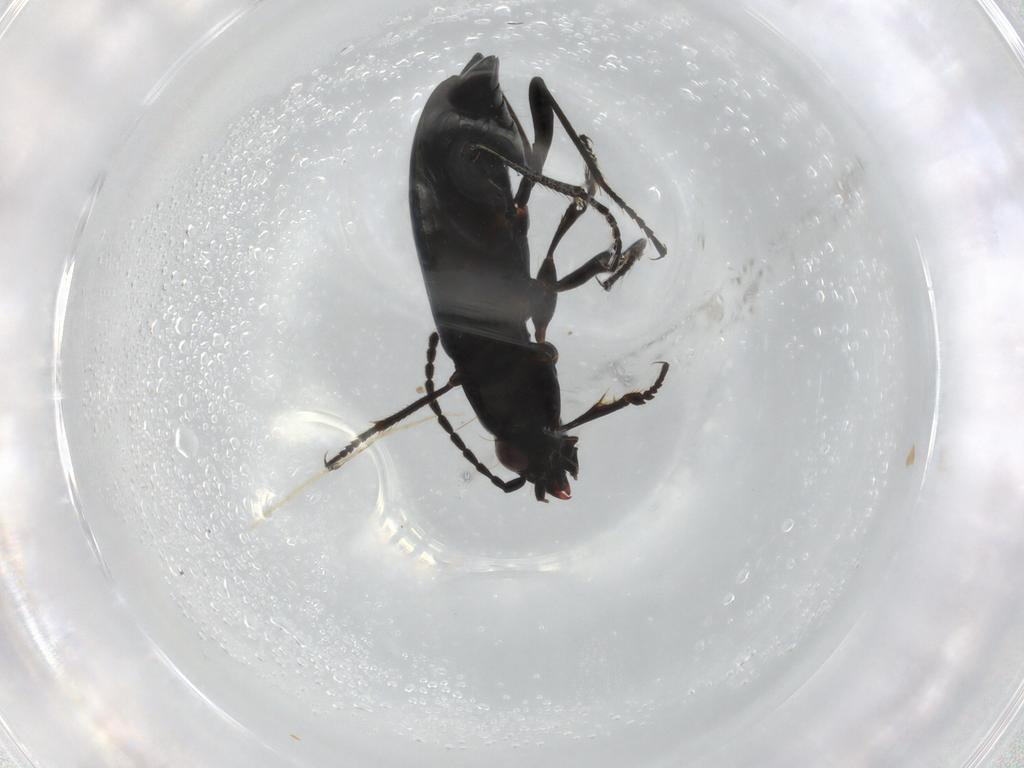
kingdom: Animalia
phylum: Arthropoda
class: Insecta
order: Coleoptera
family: Carabidae
